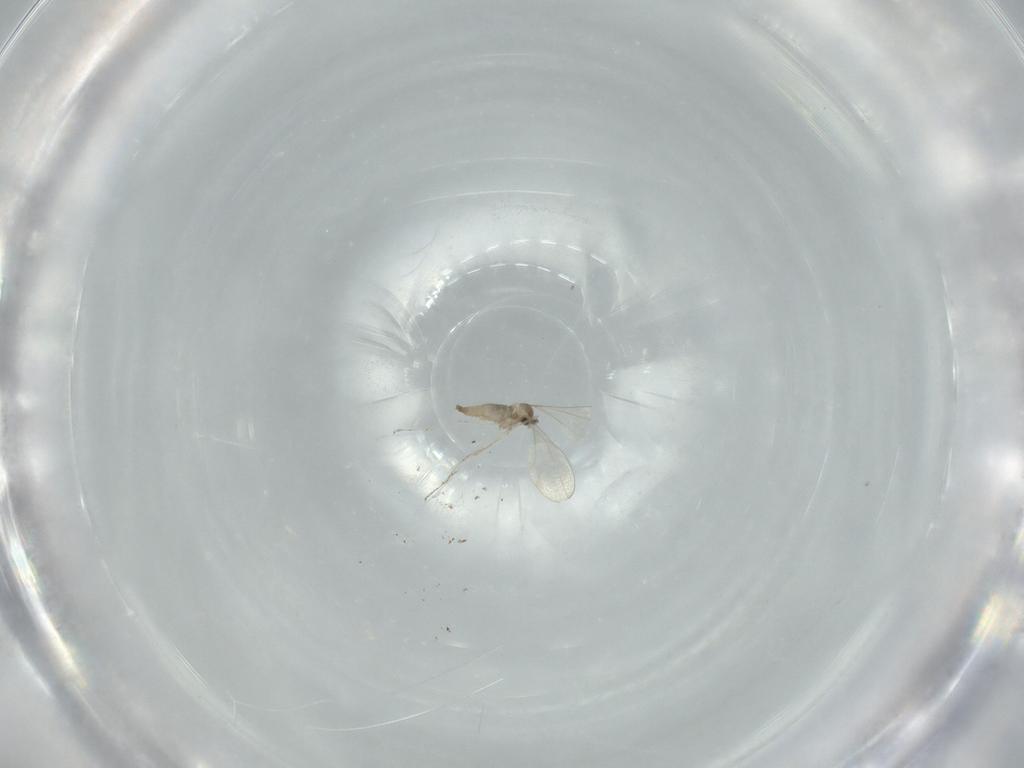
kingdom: Animalia
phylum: Arthropoda
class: Insecta
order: Diptera
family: Cecidomyiidae
